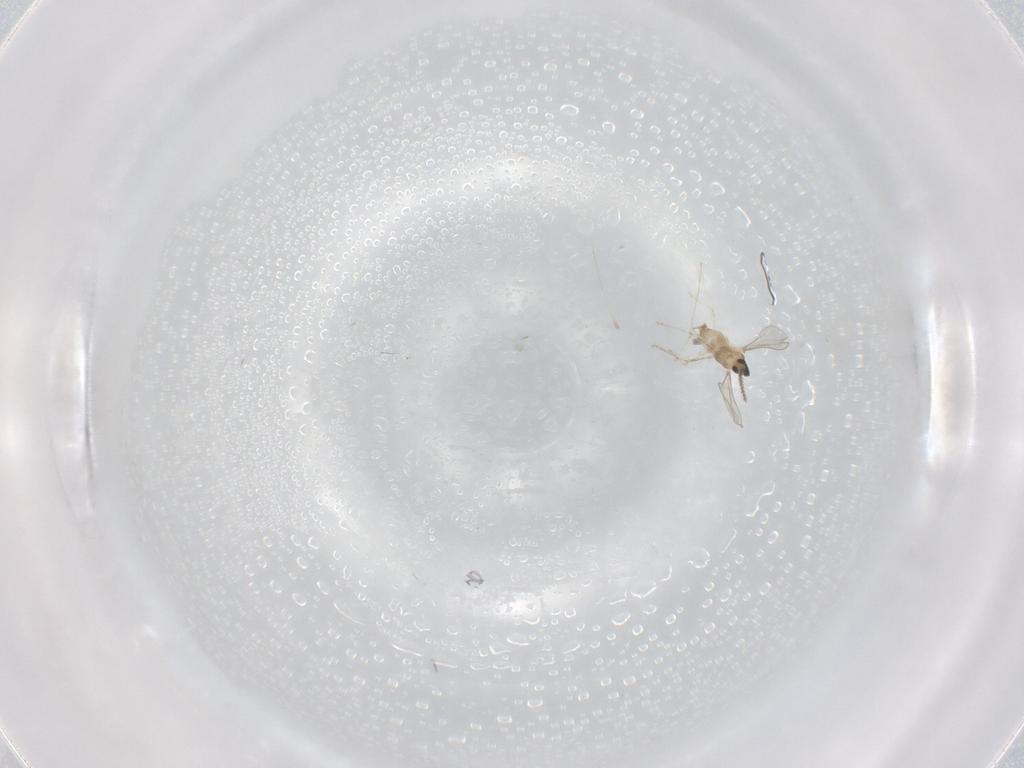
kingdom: Animalia
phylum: Arthropoda
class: Insecta
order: Diptera
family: Cecidomyiidae
